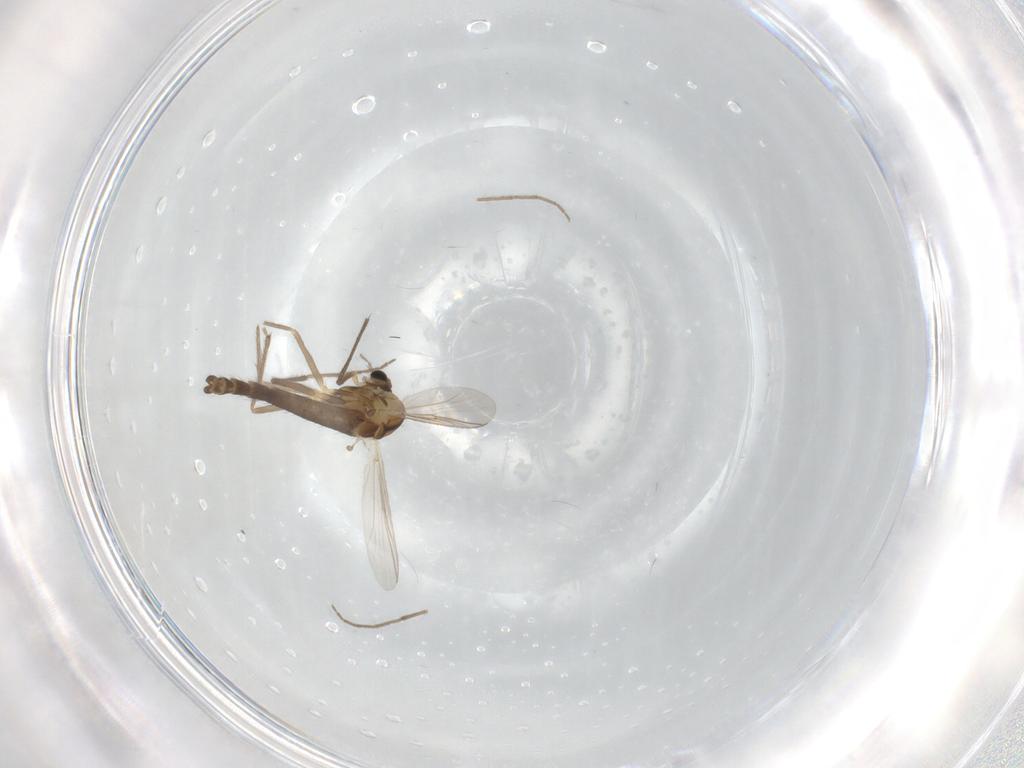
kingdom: Animalia
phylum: Arthropoda
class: Insecta
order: Diptera
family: Chironomidae
